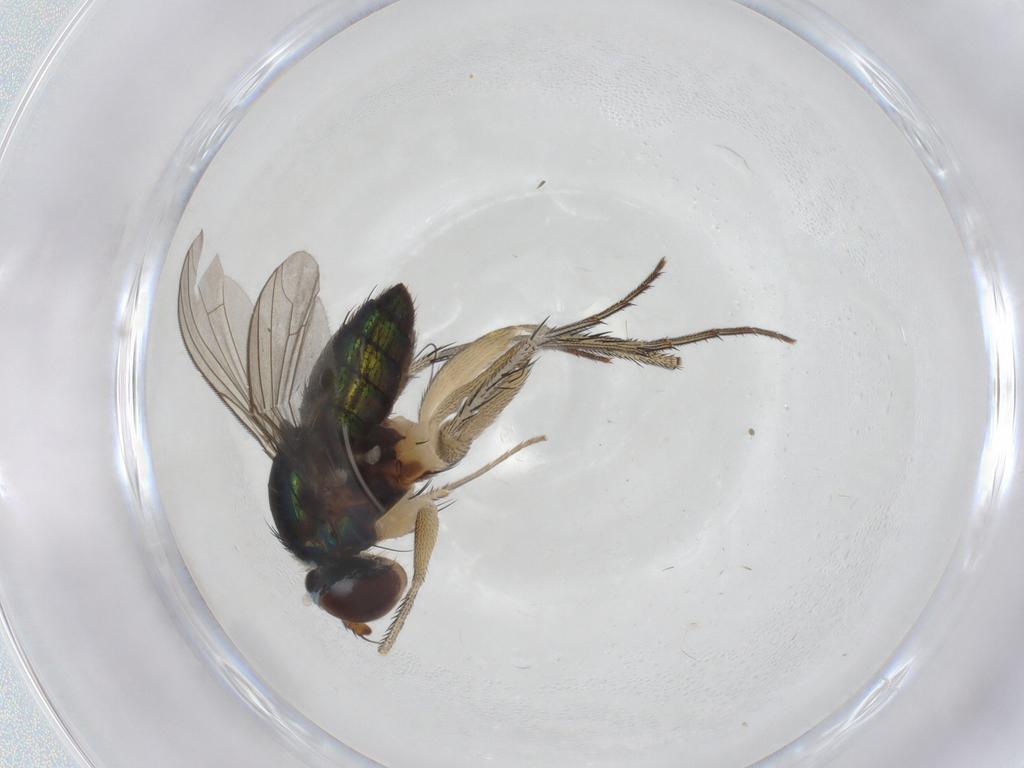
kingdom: Animalia
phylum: Arthropoda
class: Insecta
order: Diptera
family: Dolichopodidae
